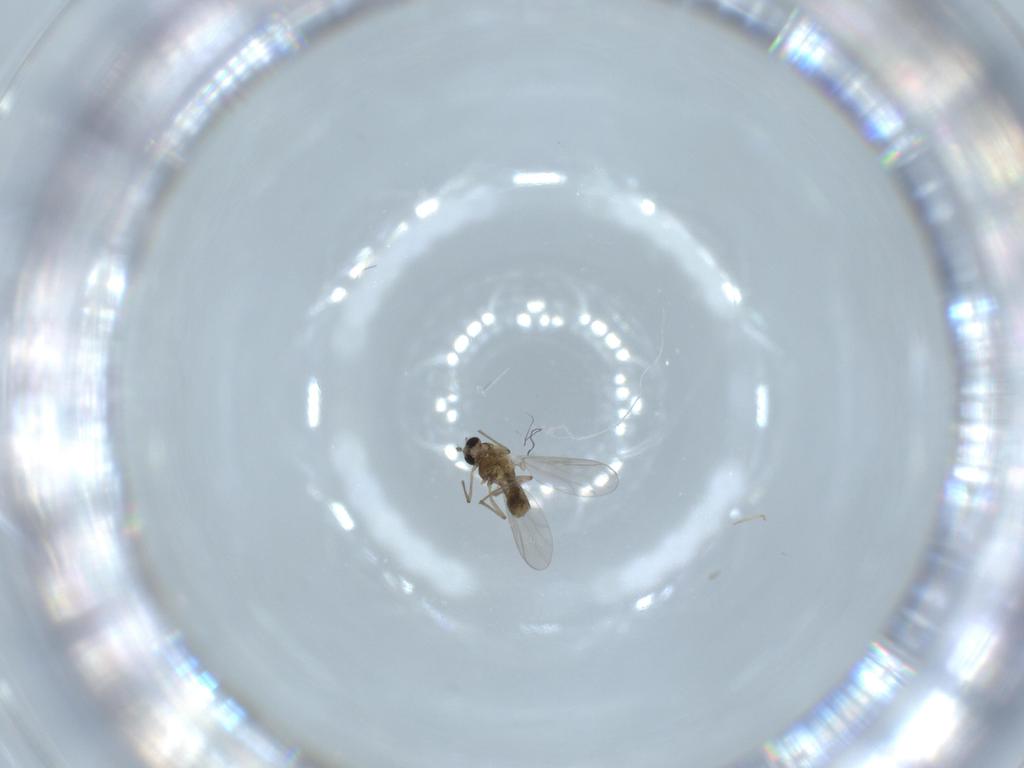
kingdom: Animalia
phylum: Arthropoda
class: Insecta
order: Diptera
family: Chironomidae
